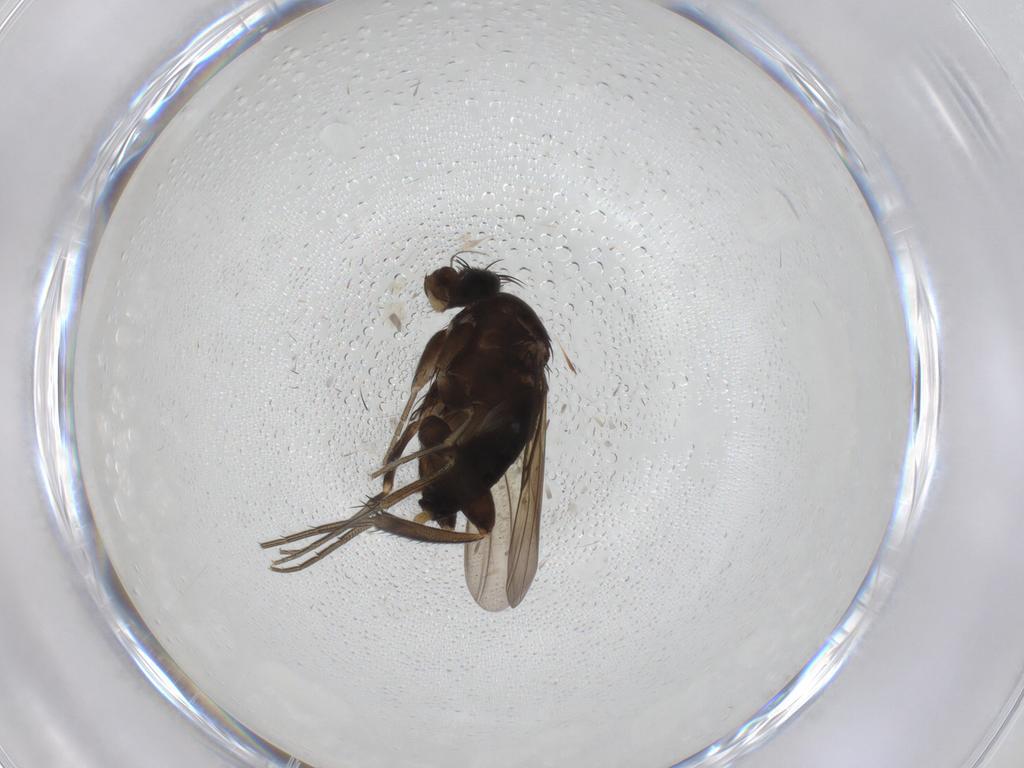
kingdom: Animalia
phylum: Arthropoda
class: Insecta
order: Diptera
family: Phoridae
